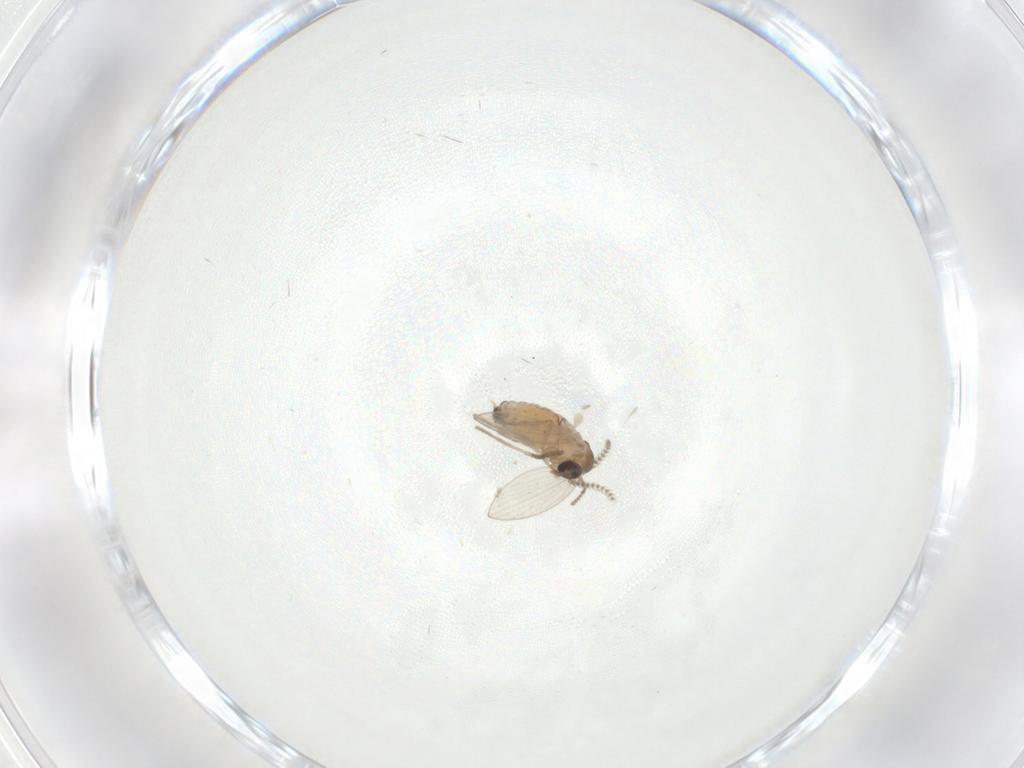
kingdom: Animalia
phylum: Arthropoda
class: Insecta
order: Diptera
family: Psychodidae
